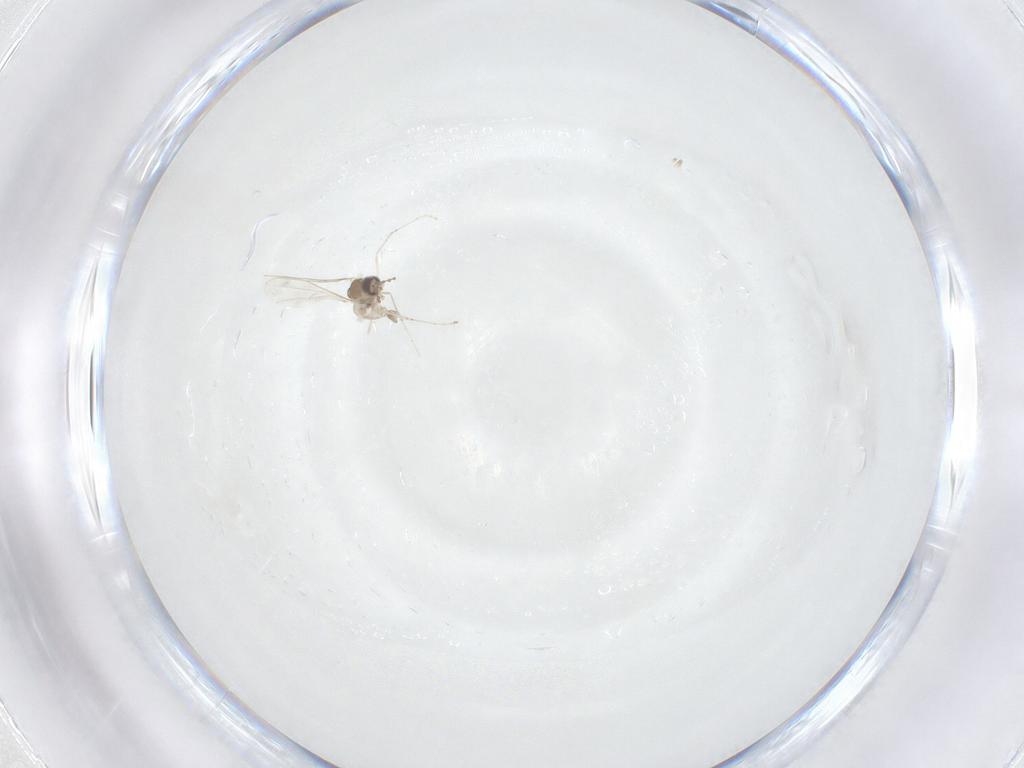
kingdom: Animalia
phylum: Arthropoda
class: Insecta
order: Diptera
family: Cecidomyiidae
